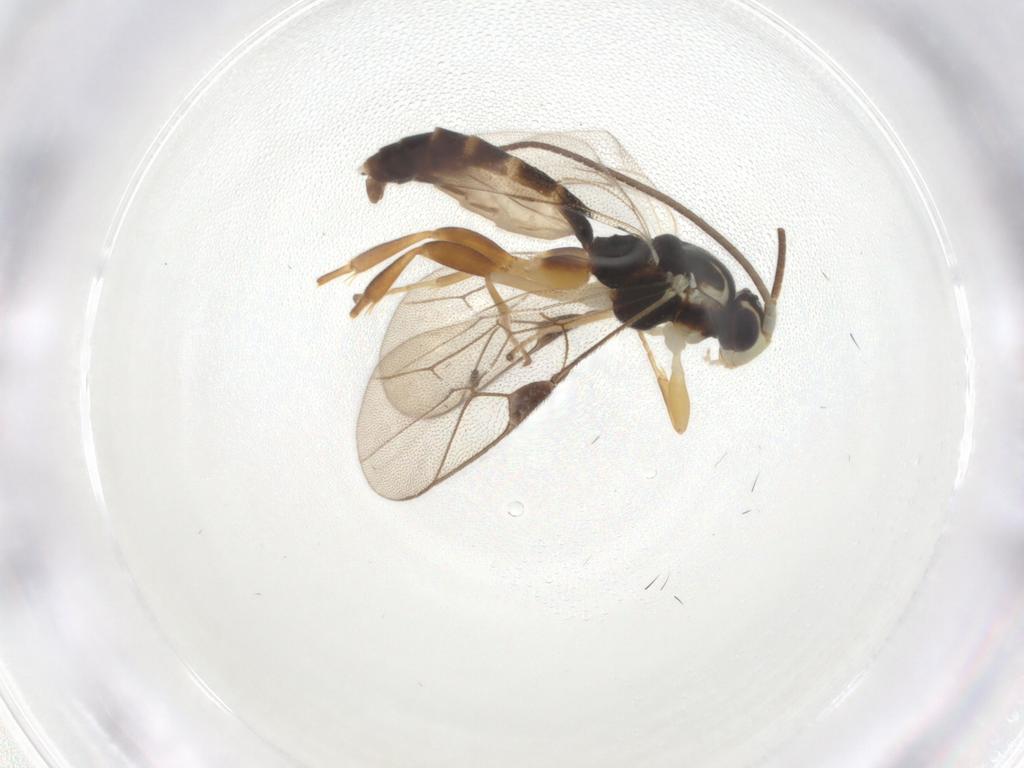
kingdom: Animalia
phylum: Arthropoda
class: Insecta
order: Hymenoptera
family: Ichneumonidae
